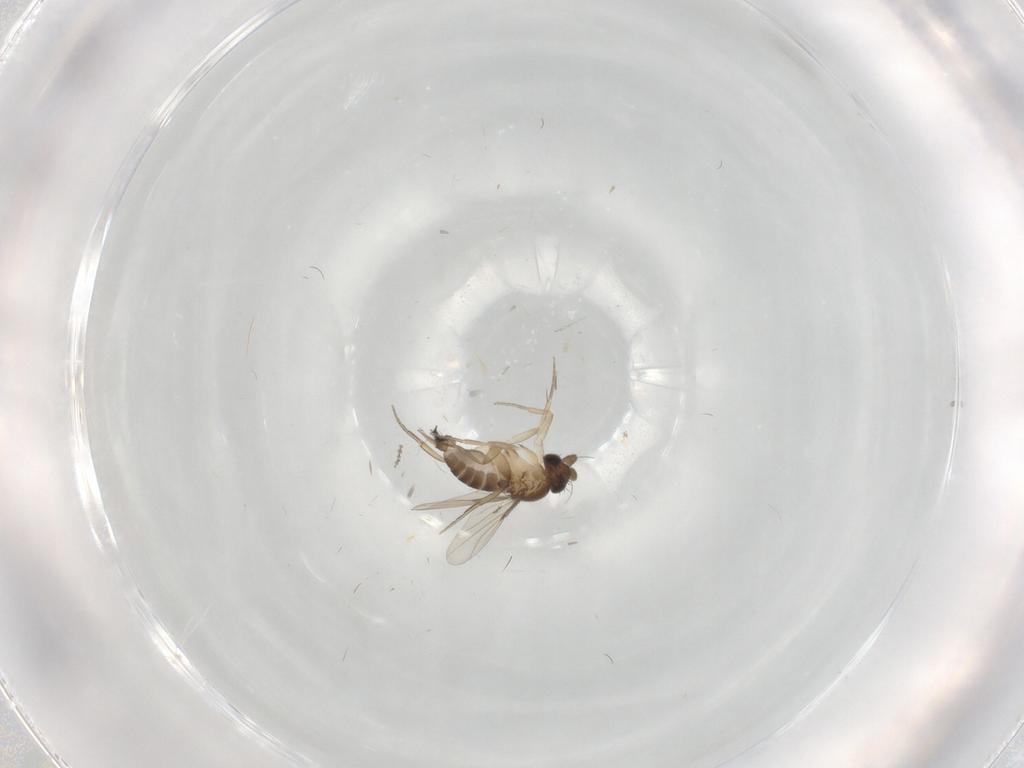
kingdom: Animalia
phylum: Arthropoda
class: Insecta
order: Diptera
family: Phoridae
